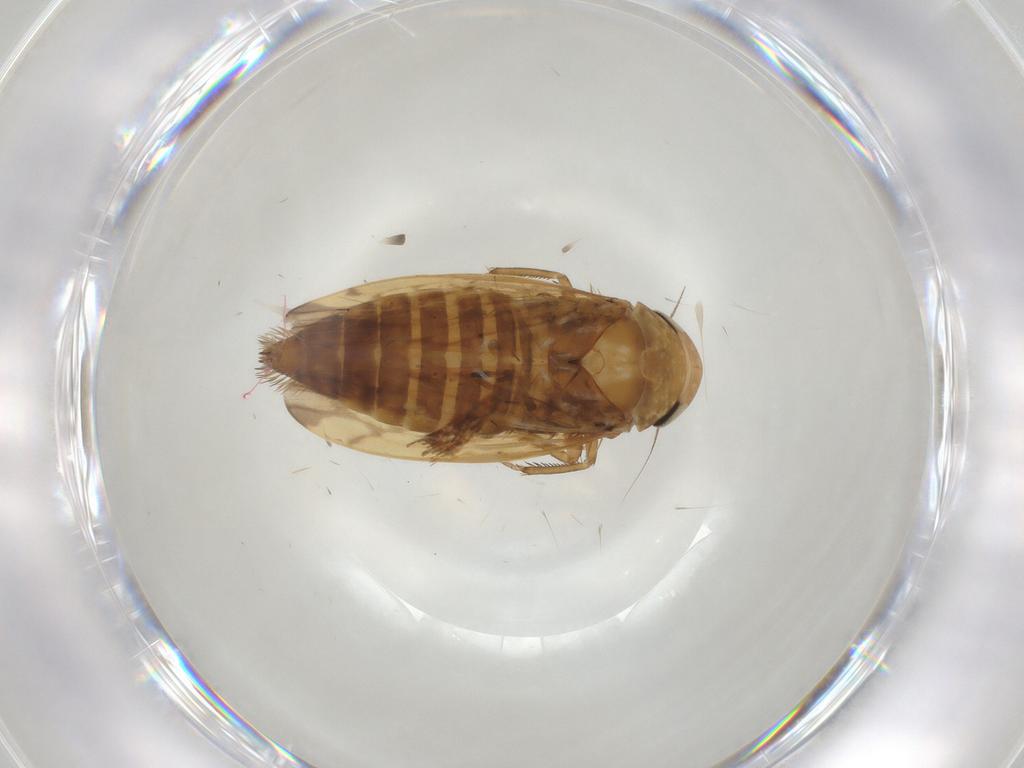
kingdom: Animalia
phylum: Arthropoda
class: Insecta
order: Hemiptera
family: Cicadellidae
